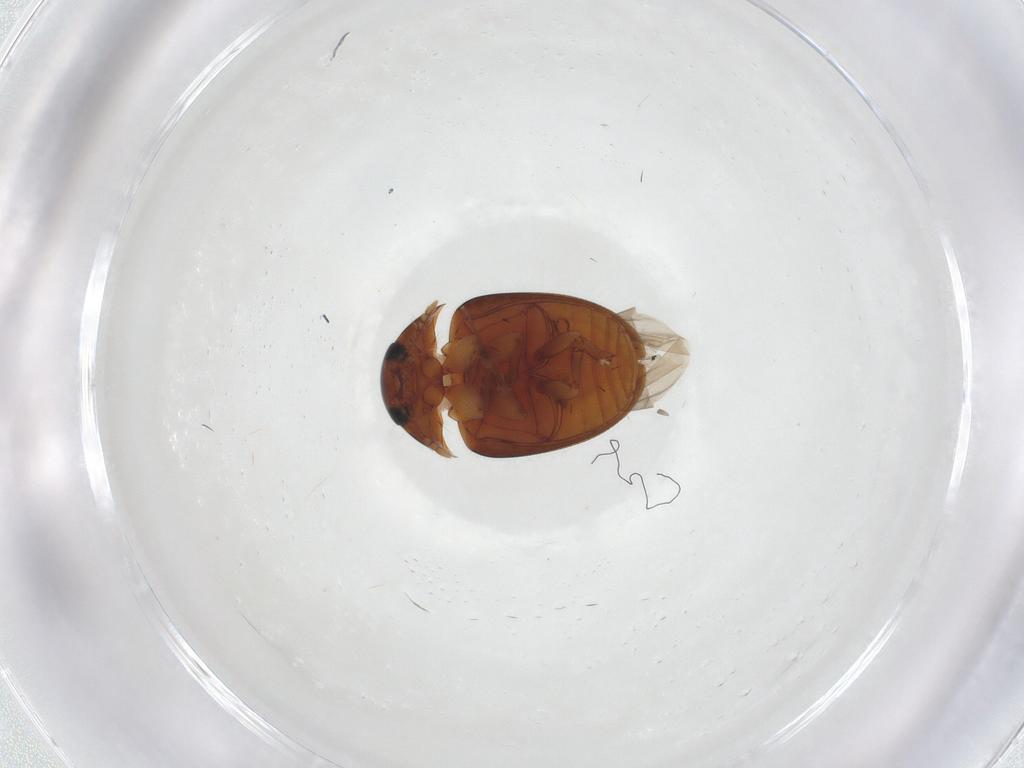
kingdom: Animalia
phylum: Arthropoda
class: Insecta
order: Coleoptera
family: Phalacridae
